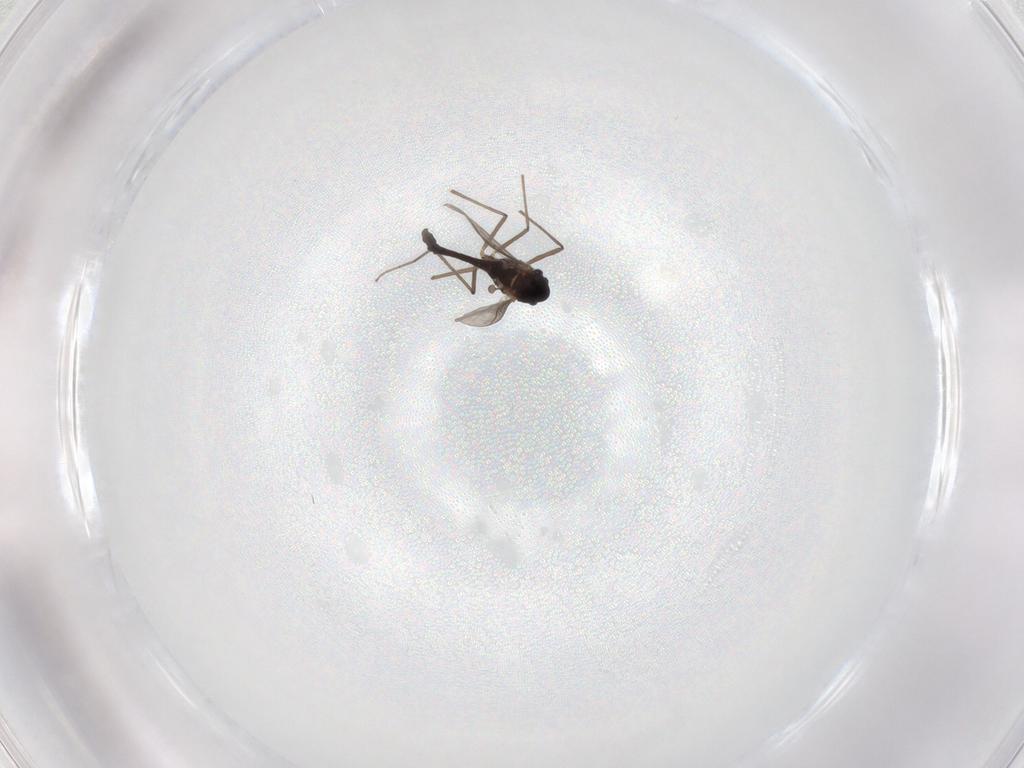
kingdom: Animalia
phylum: Arthropoda
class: Insecta
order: Diptera
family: Chironomidae
